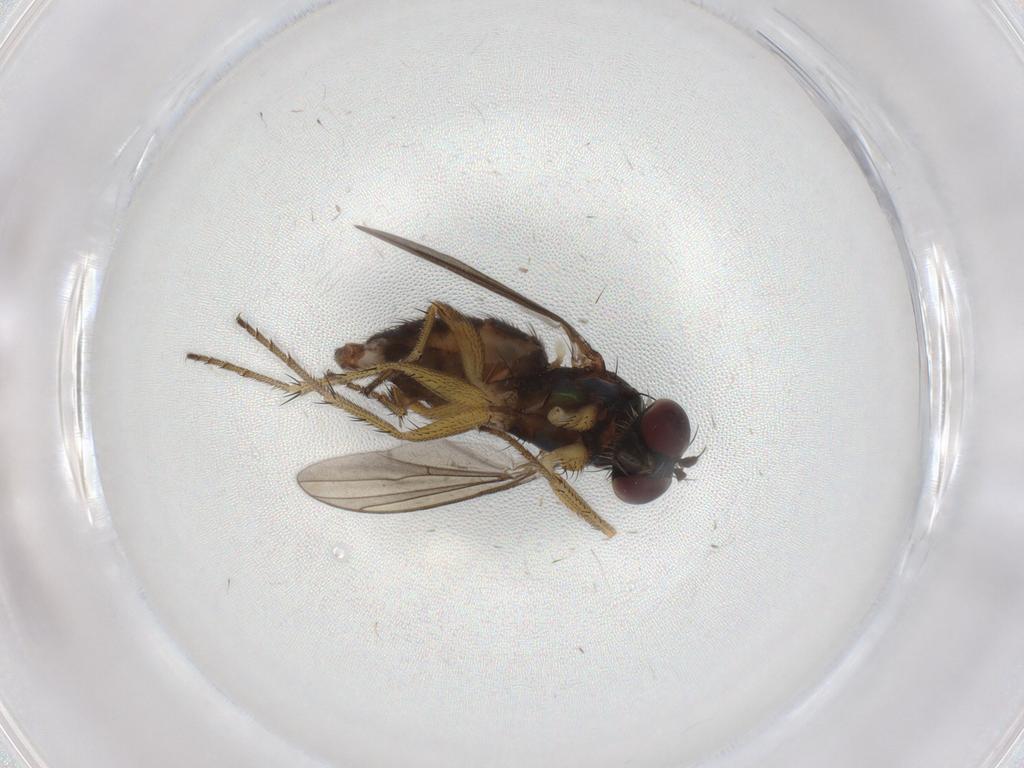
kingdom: Animalia
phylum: Arthropoda
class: Insecta
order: Diptera
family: Dolichopodidae
